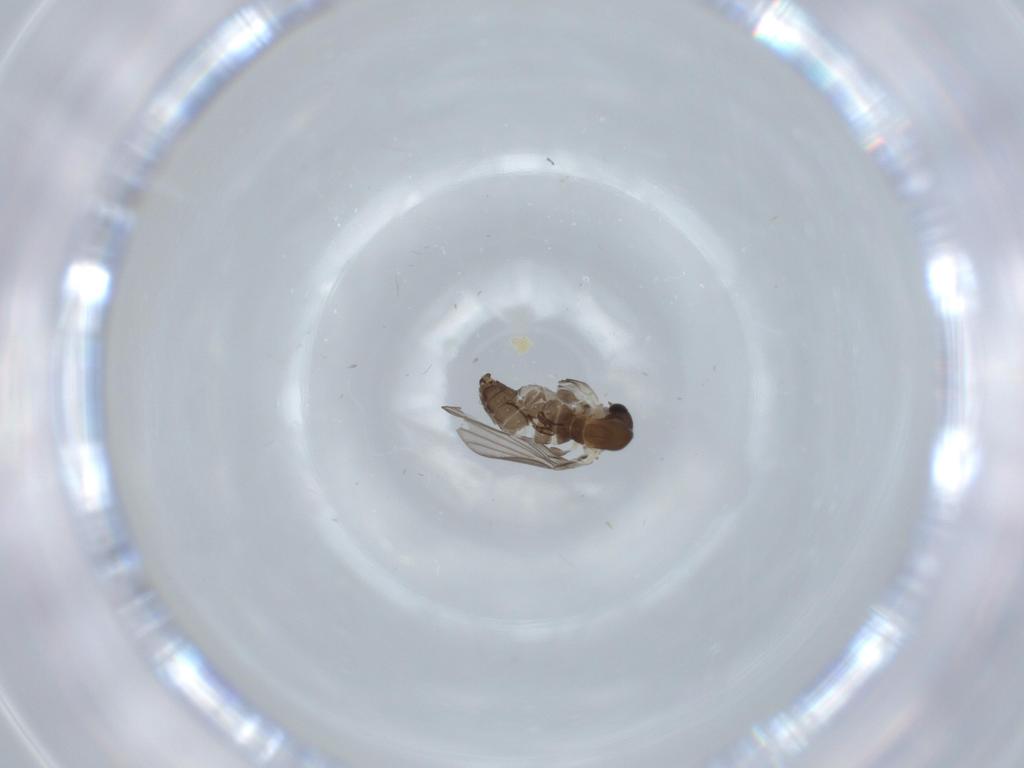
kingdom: Animalia
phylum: Arthropoda
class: Insecta
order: Diptera
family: Psychodidae
